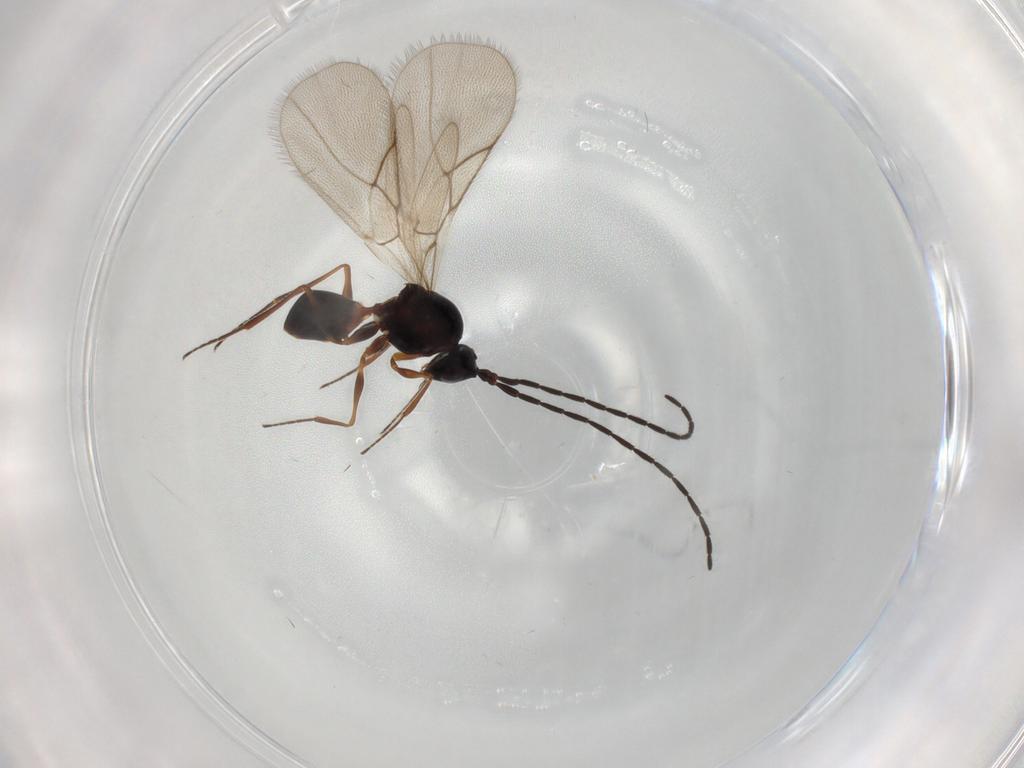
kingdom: Animalia
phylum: Arthropoda
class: Insecta
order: Hymenoptera
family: Figitidae
